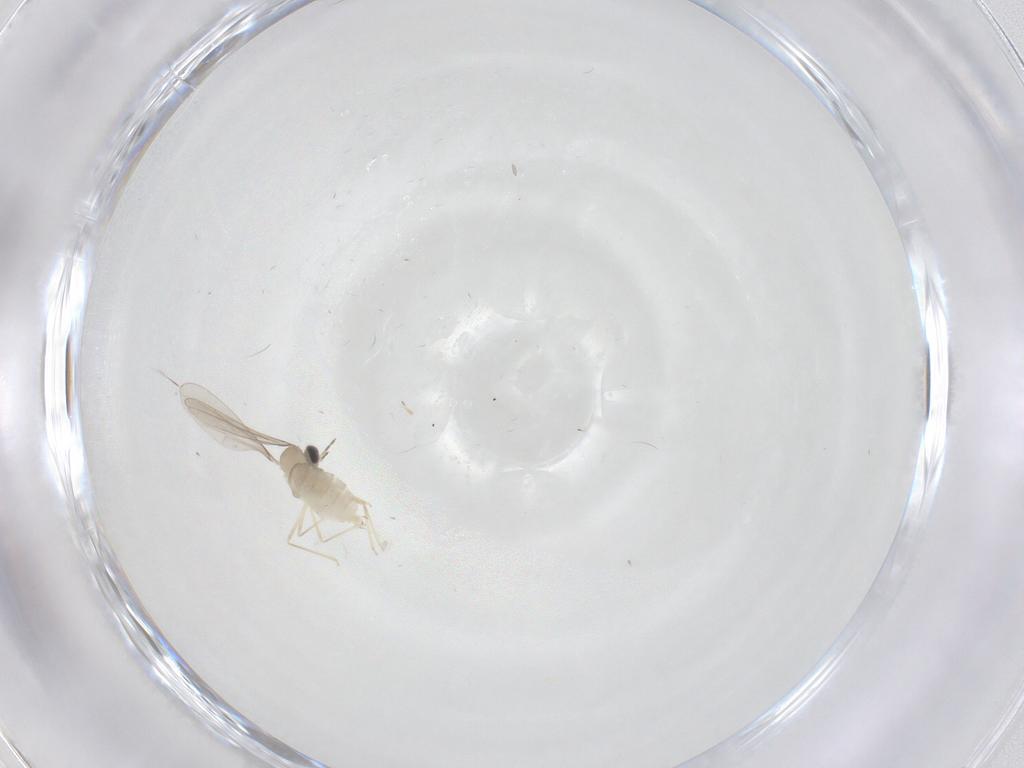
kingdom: Animalia
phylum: Arthropoda
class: Insecta
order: Diptera
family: Cecidomyiidae
